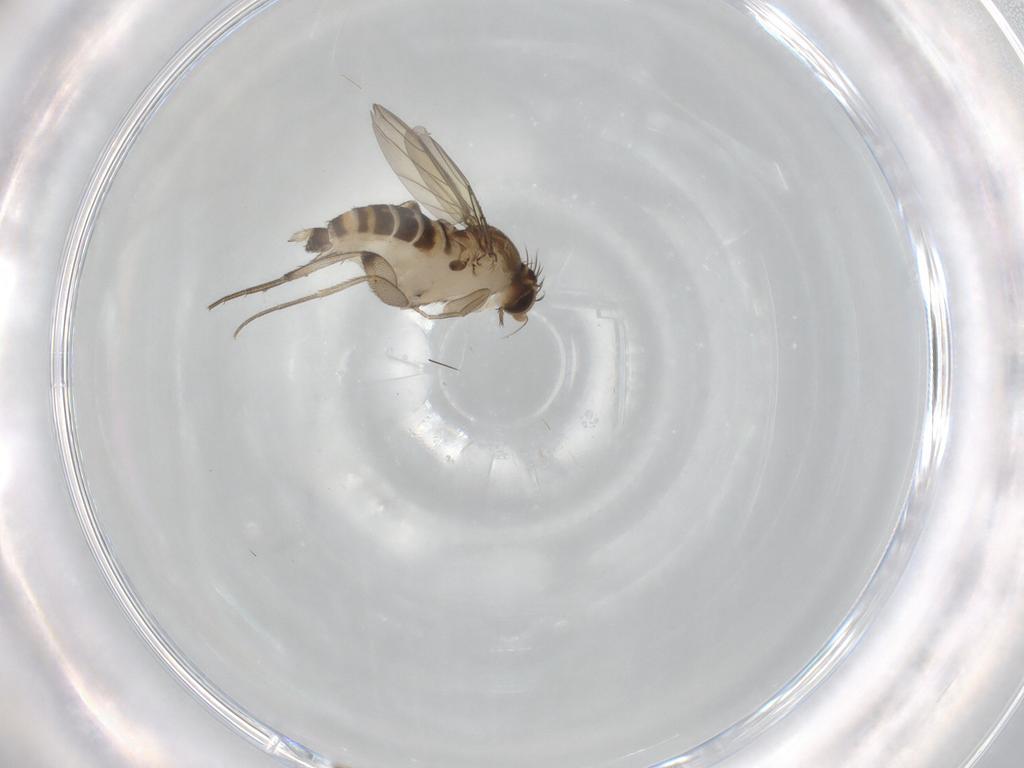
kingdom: Animalia
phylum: Arthropoda
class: Insecta
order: Diptera
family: Phoridae
